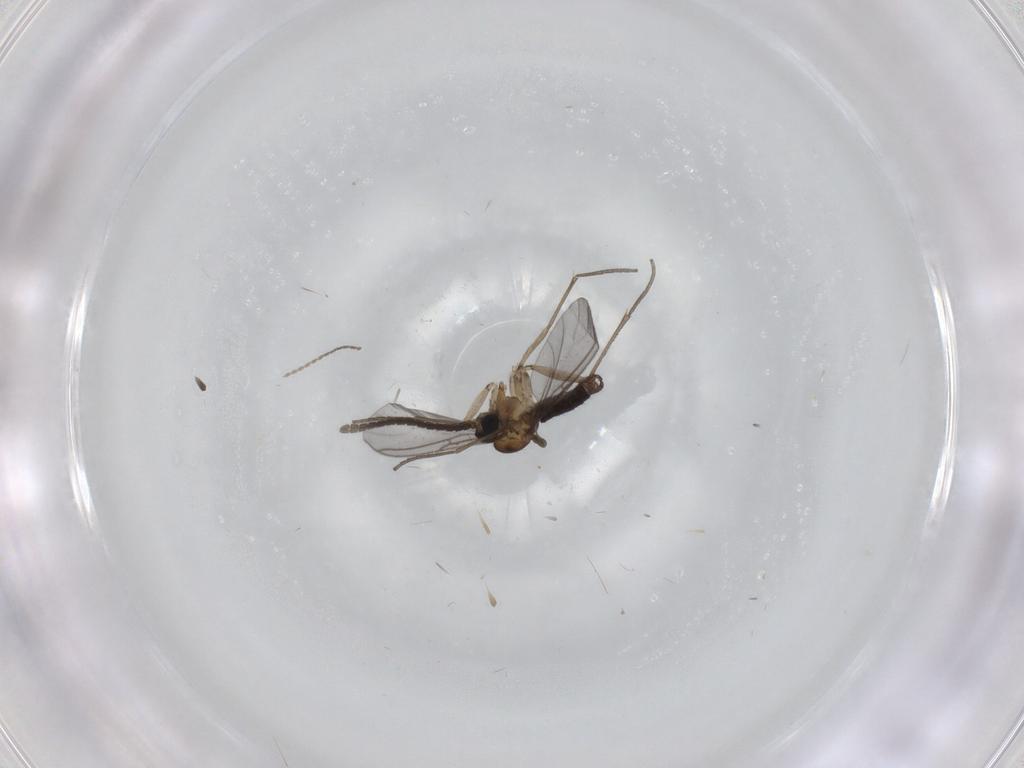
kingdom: Animalia
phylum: Arthropoda
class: Insecta
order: Diptera
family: Sciaridae
